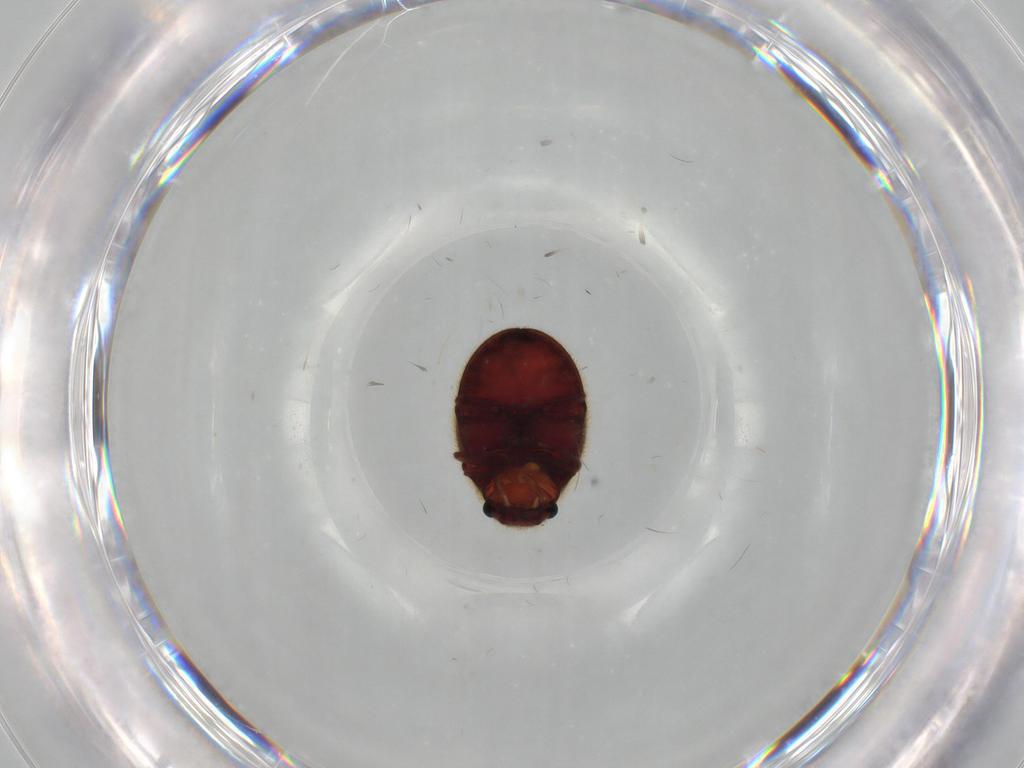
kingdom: Animalia
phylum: Arthropoda
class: Insecta
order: Coleoptera
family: Ptinidae
